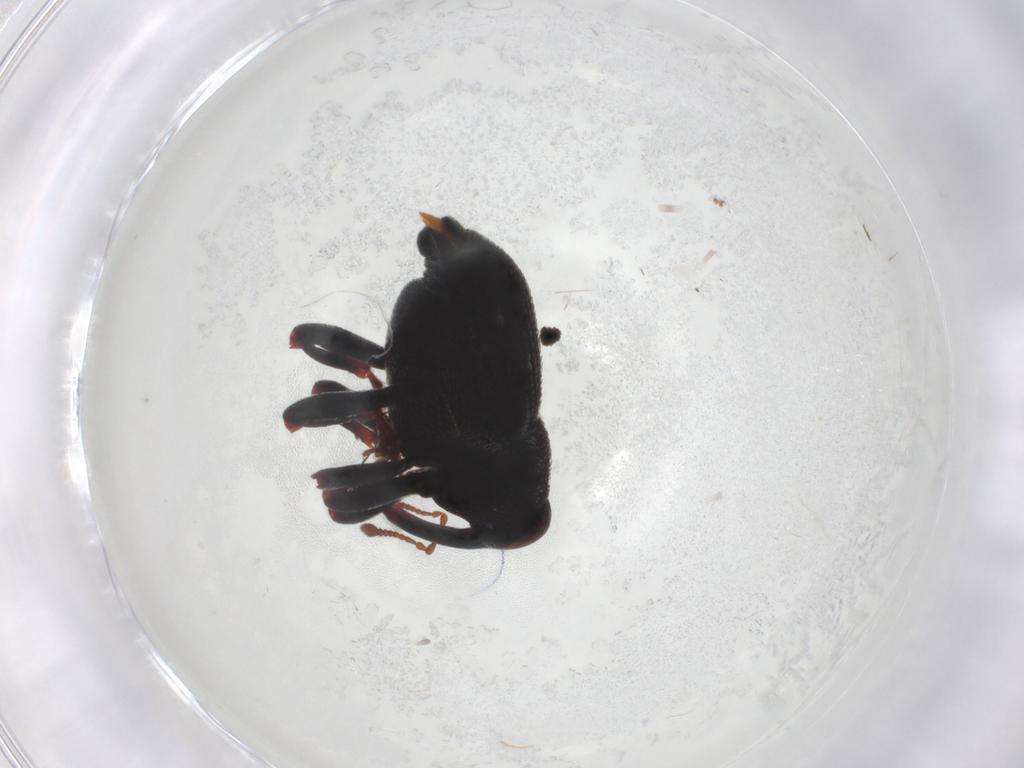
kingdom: Animalia
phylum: Arthropoda
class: Insecta
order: Coleoptera
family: Curculionidae
